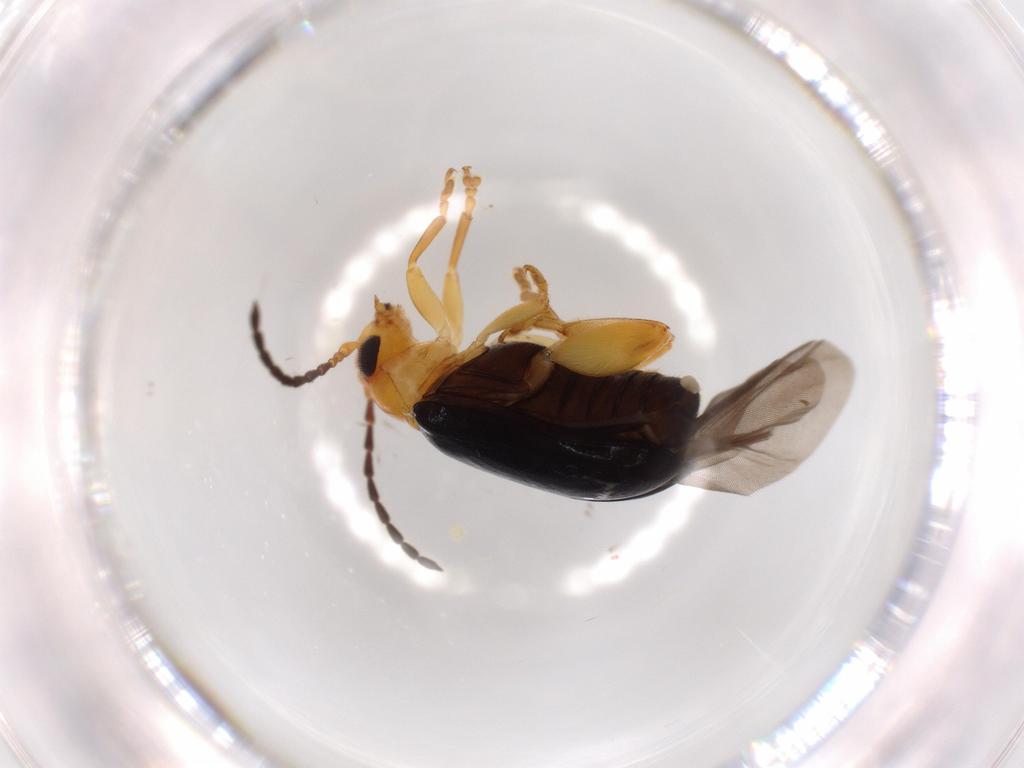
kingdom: Animalia
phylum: Arthropoda
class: Insecta
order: Coleoptera
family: Chrysomelidae
